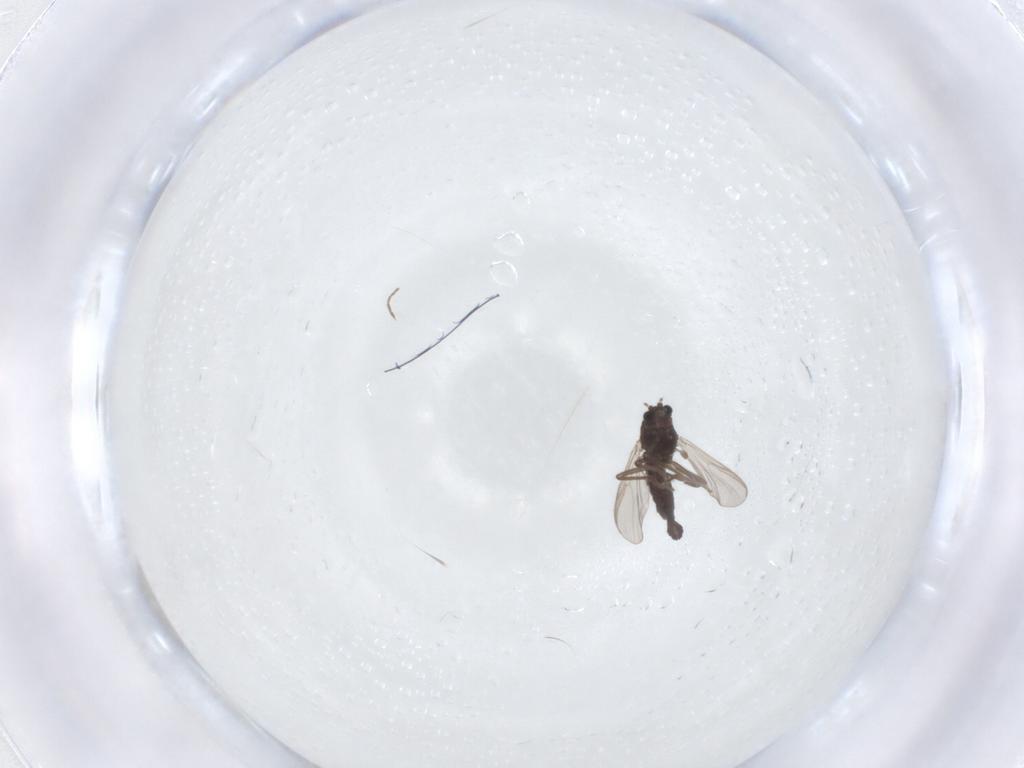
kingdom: Animalia
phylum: Arthropoda
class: Insecta
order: Diptera
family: Chironomidae
